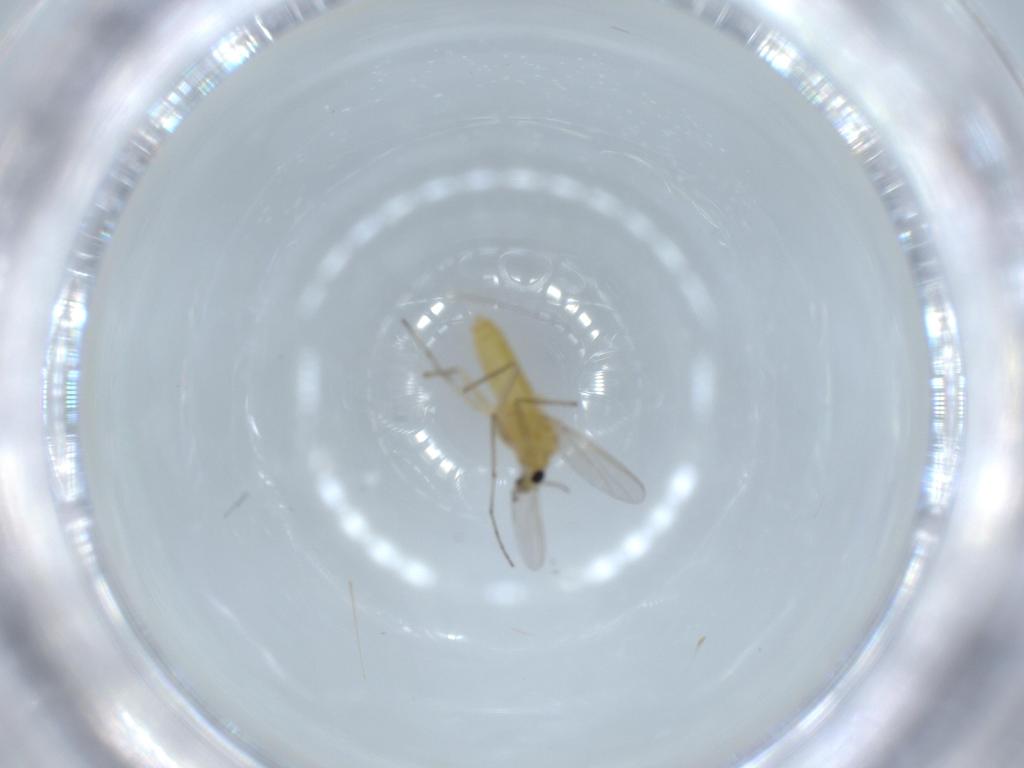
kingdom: Animalia
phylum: Arthropoda
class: Insecta
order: Diptera
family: Chironomidae
